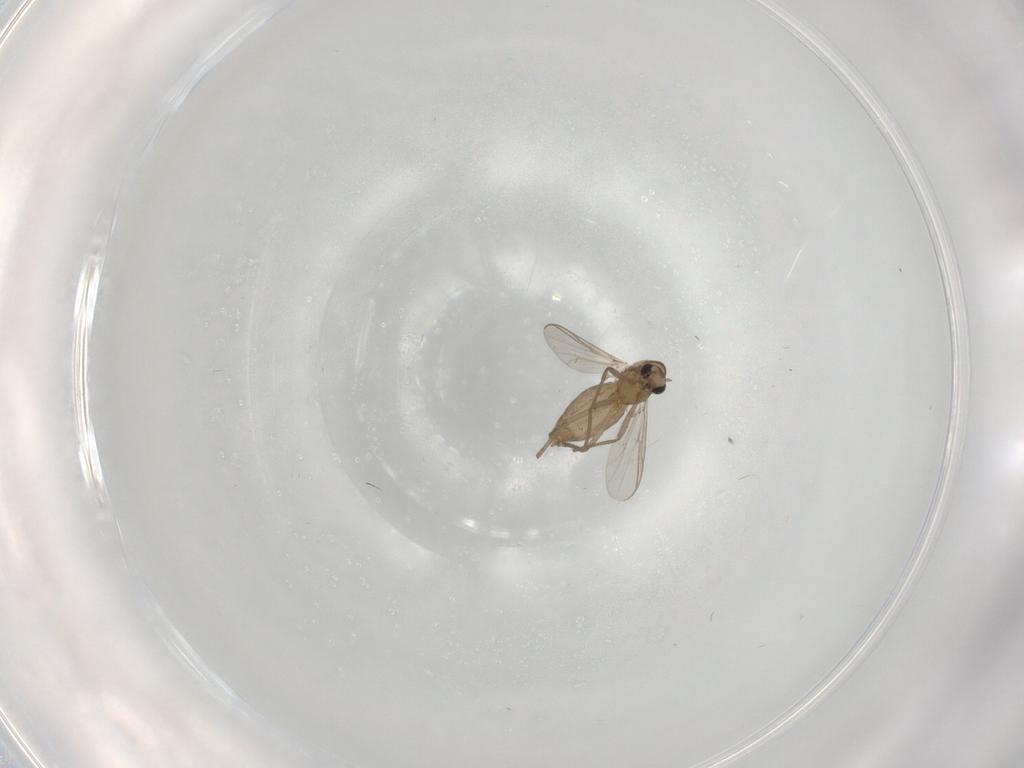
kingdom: Animalia
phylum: Arthropoda
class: Insecta
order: Diptera
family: Chironomidae
